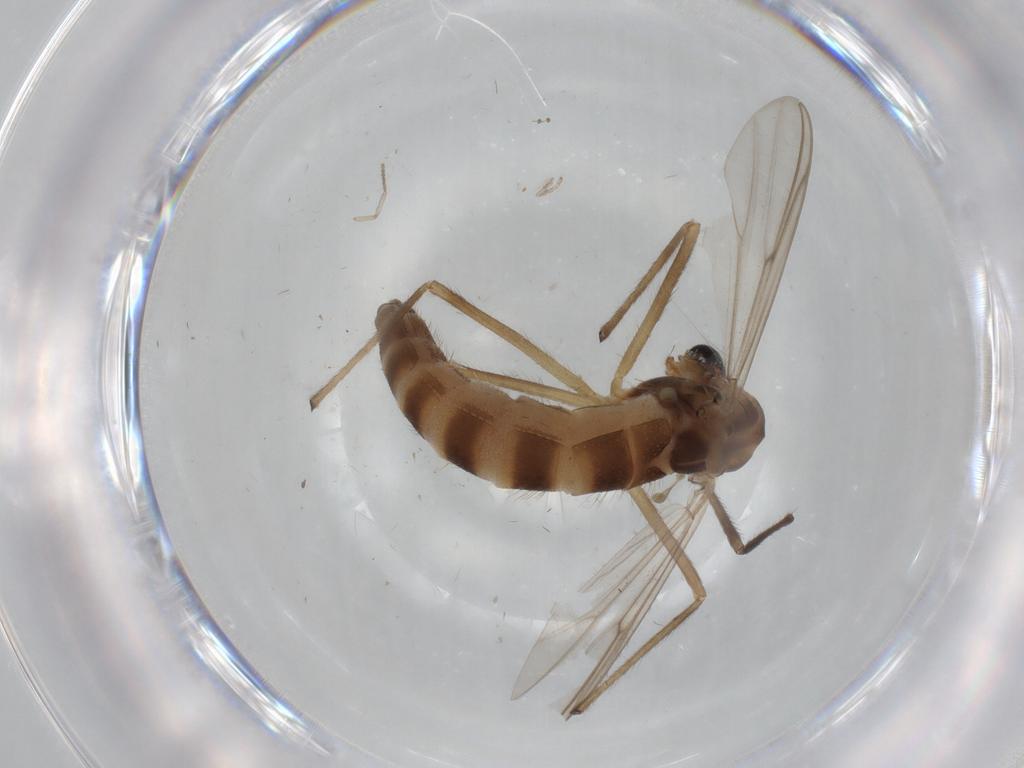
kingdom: Animalia
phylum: Arthropoda
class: Insecta
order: Diptera
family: Chironomidae
